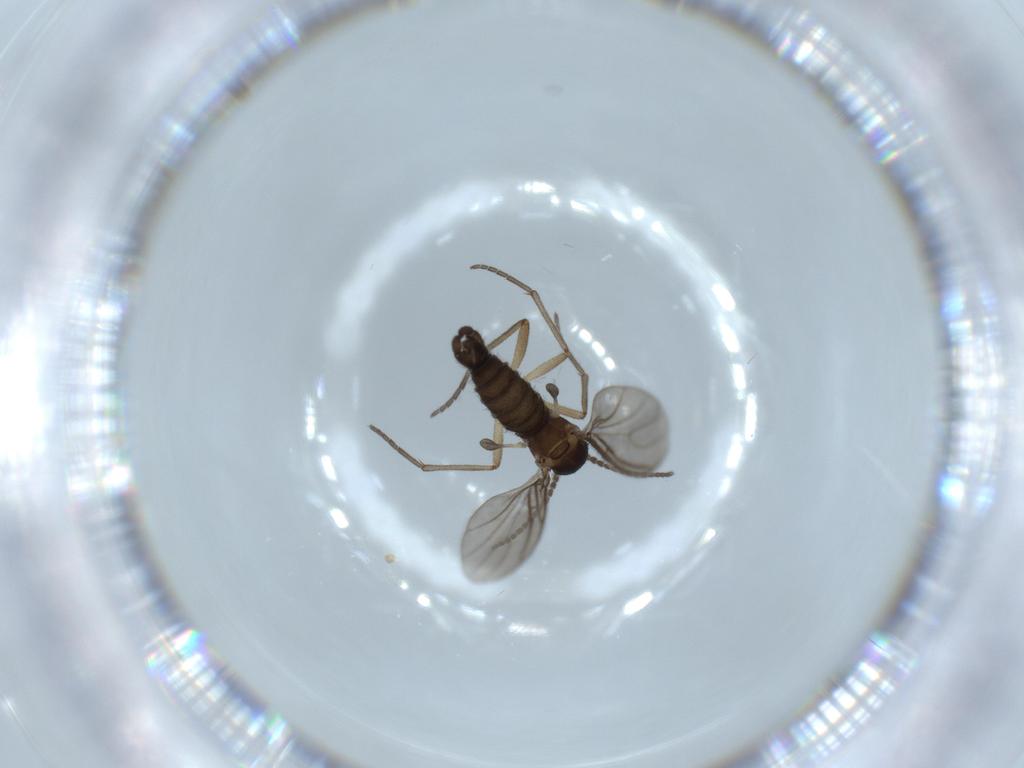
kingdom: Animalia
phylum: Arthropoda
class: Insecta
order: Diptera
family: Sciaridae
